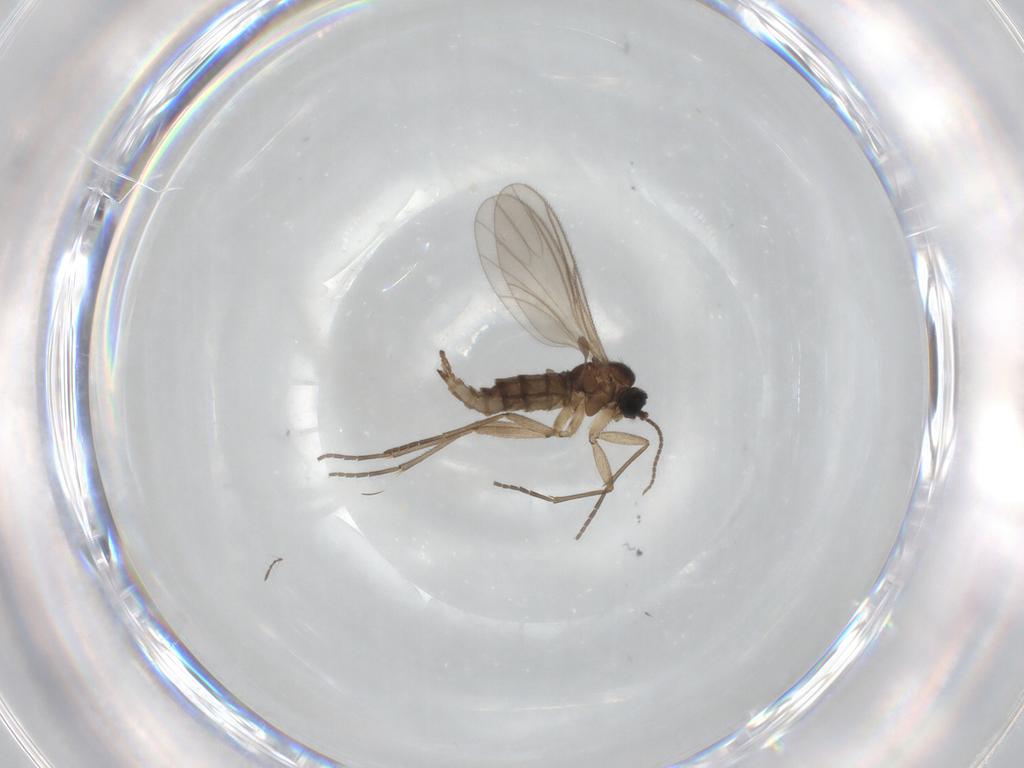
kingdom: Animalia
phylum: Arthropoda
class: Insecta
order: Diptera
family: Sciaridae
